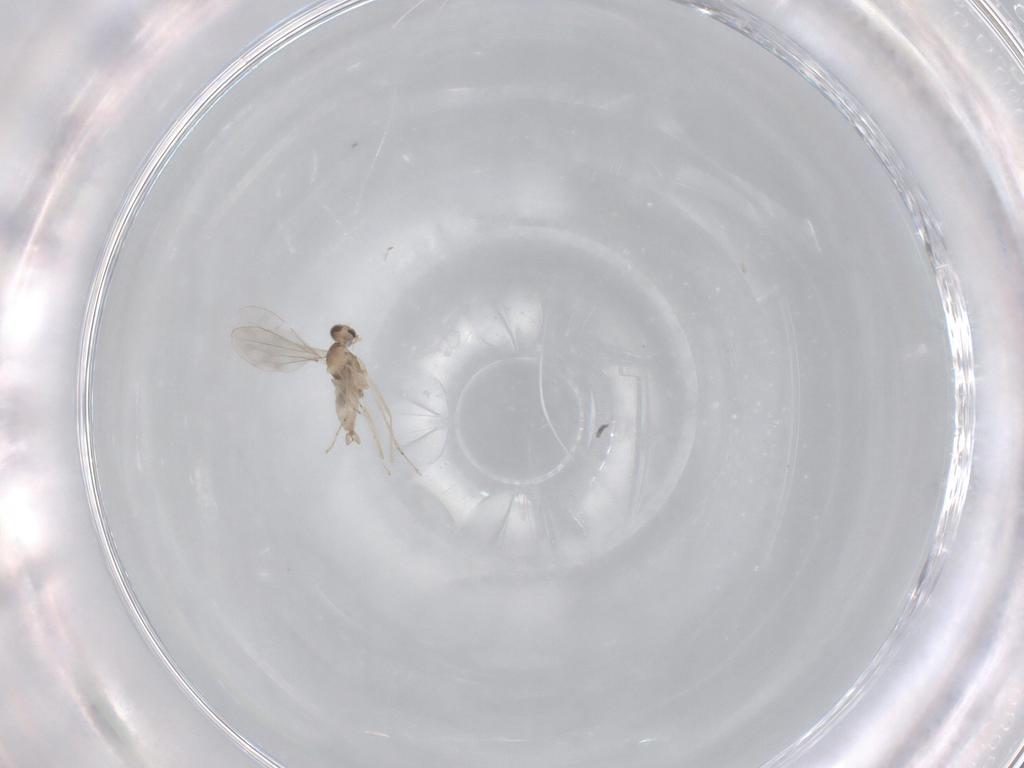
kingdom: Animalia
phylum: Arthropoda
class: Insecta
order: Diptera
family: Cecidomyiidae
